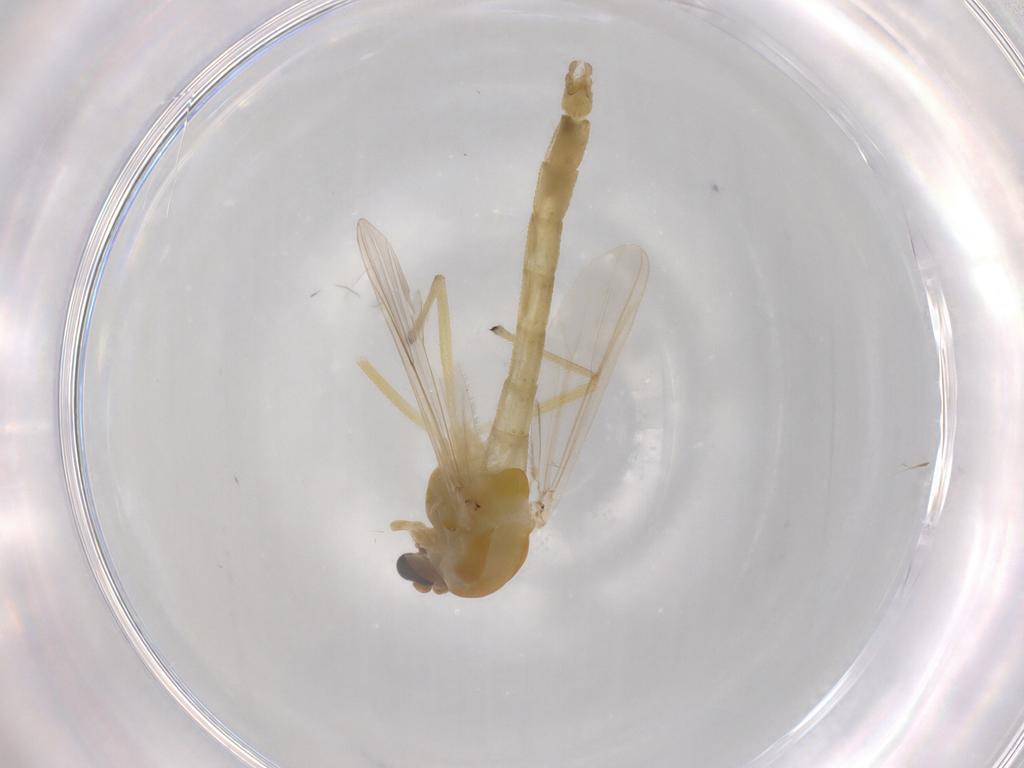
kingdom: Animalia
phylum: Arthropoda
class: Insecta
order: Diptera
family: Chironomidae
